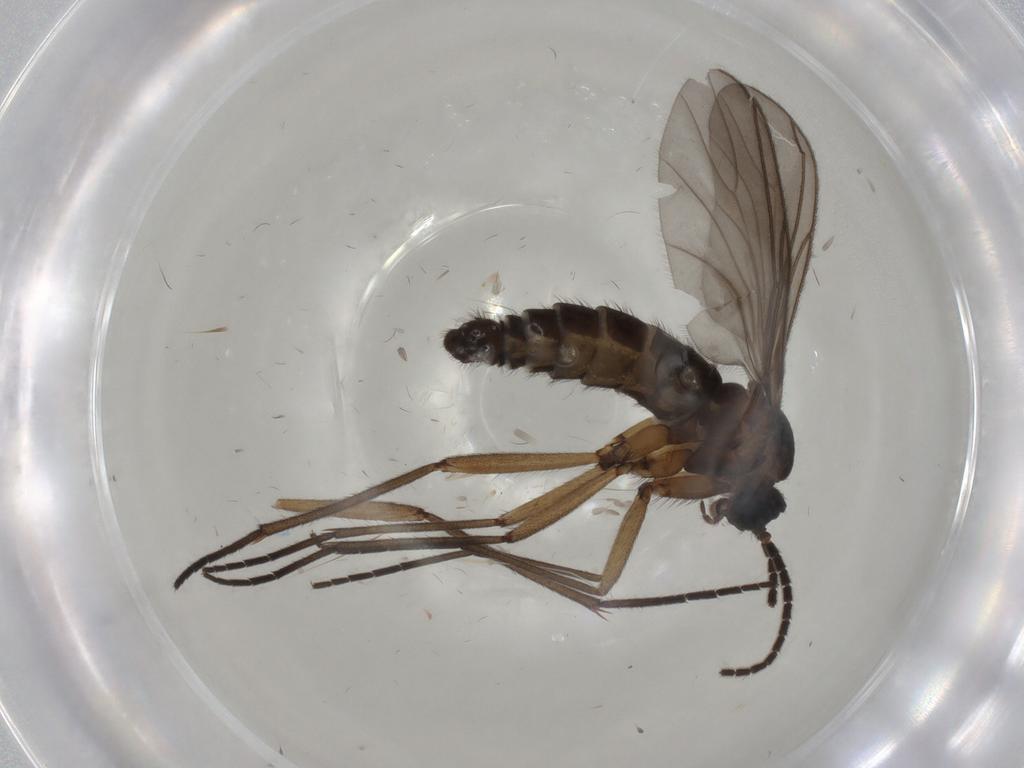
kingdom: Animalia
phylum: Arthropoda
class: Insecta
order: Diptera
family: Sciaridae
